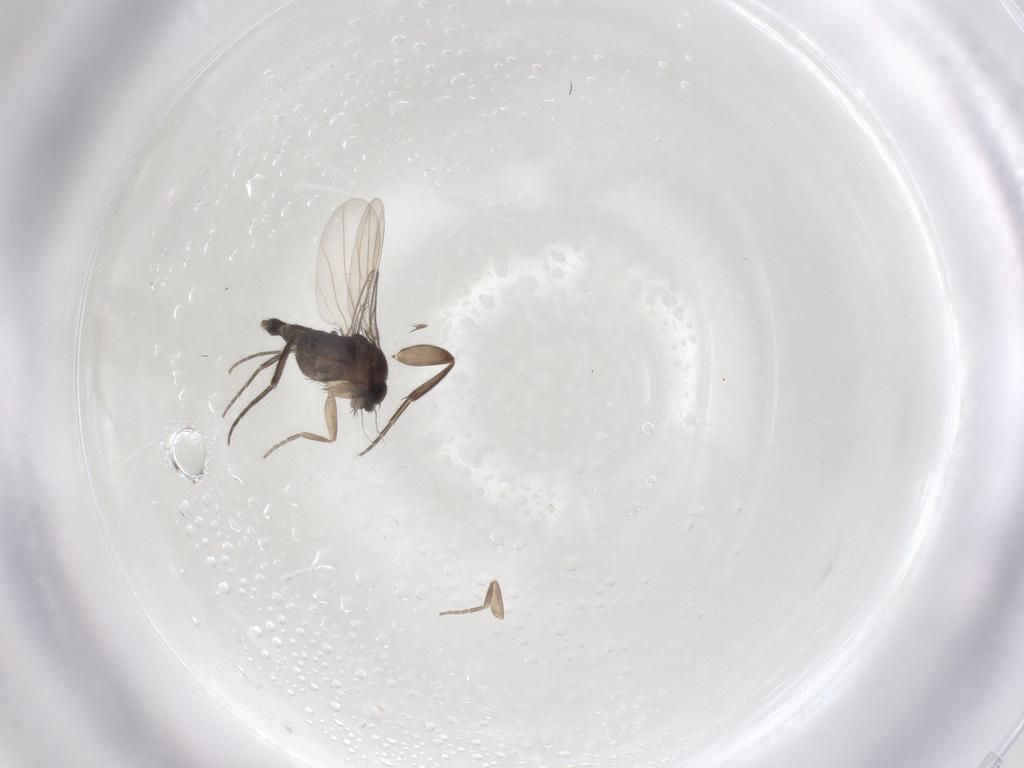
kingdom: Animalia
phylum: Arthropoda
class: Insecta
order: Diptera
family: Phoridae
